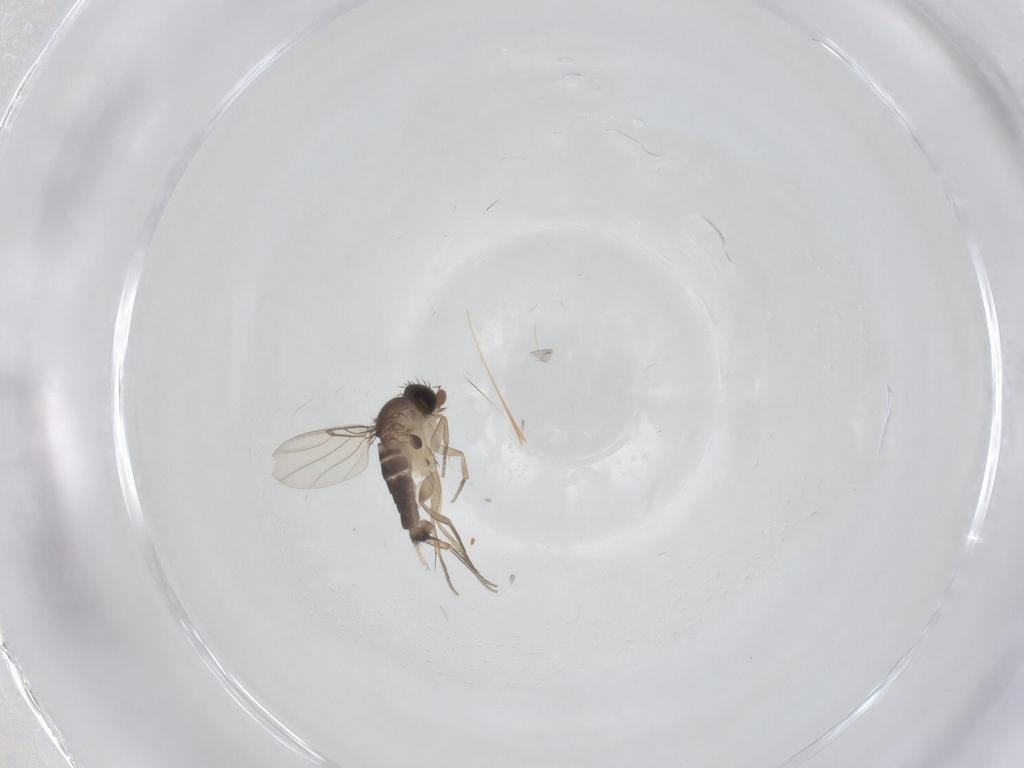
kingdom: Animalia
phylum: Arthropoda
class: Insecta
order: Diptera
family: Phoridae
